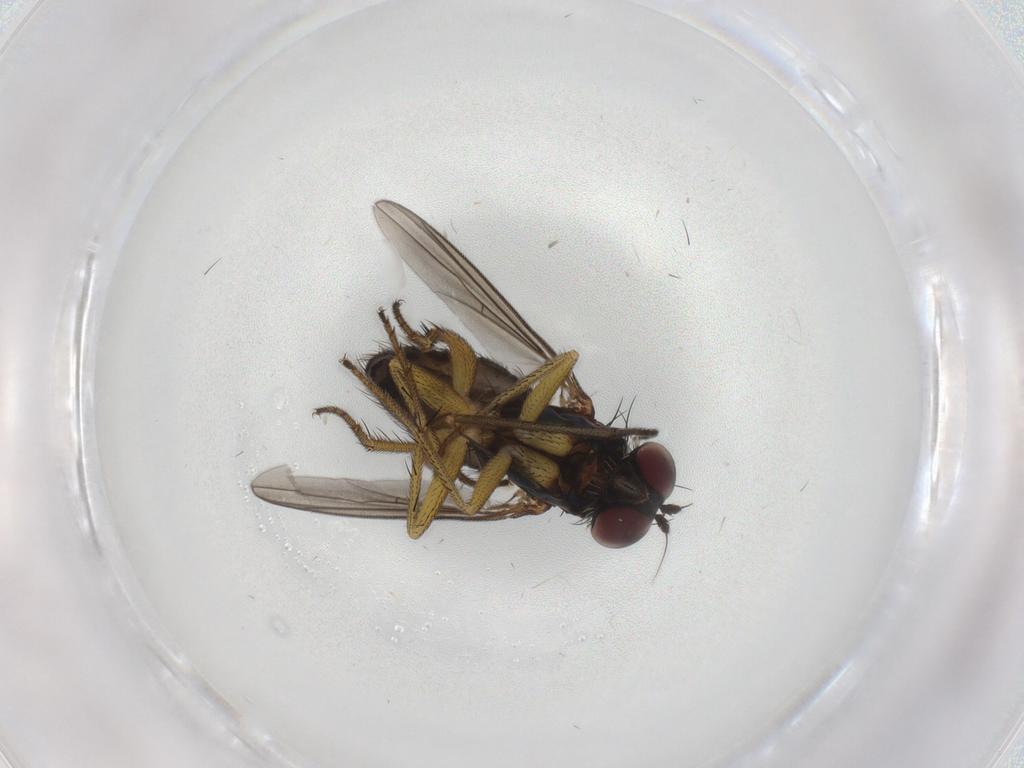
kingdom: Animalia
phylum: Arthropoda
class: Insecta
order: Diptera
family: Dolichopodidae
